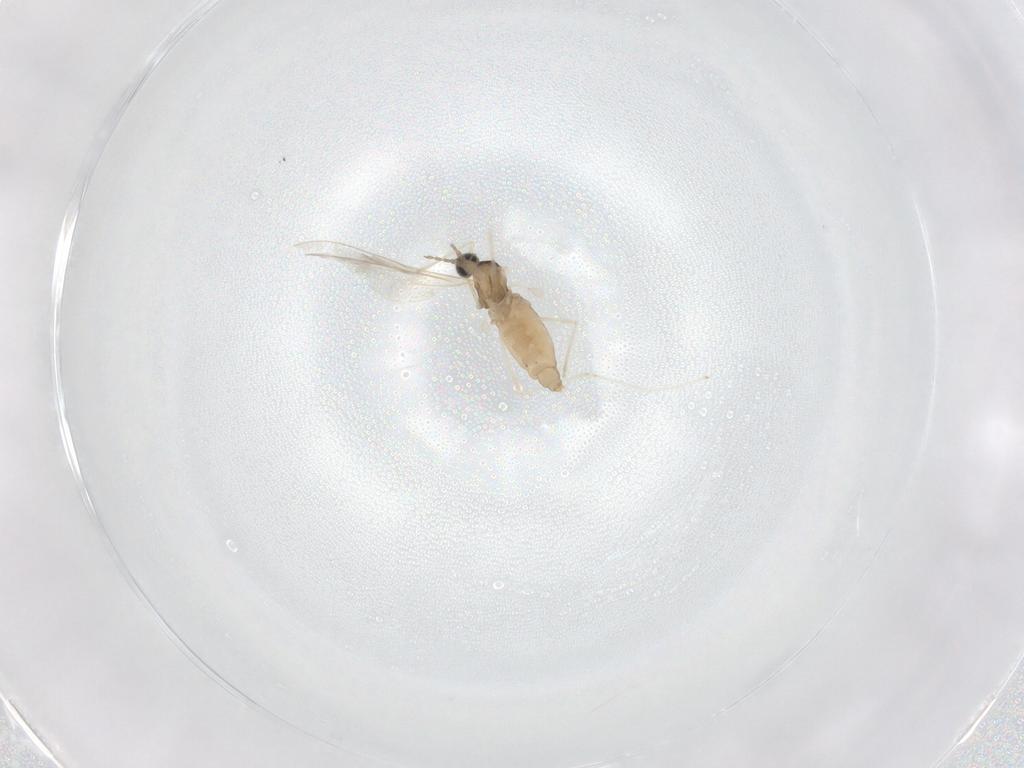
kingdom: Animalia
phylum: Arthropoda
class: Insecta
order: Diptera
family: Cecidomyiidae
